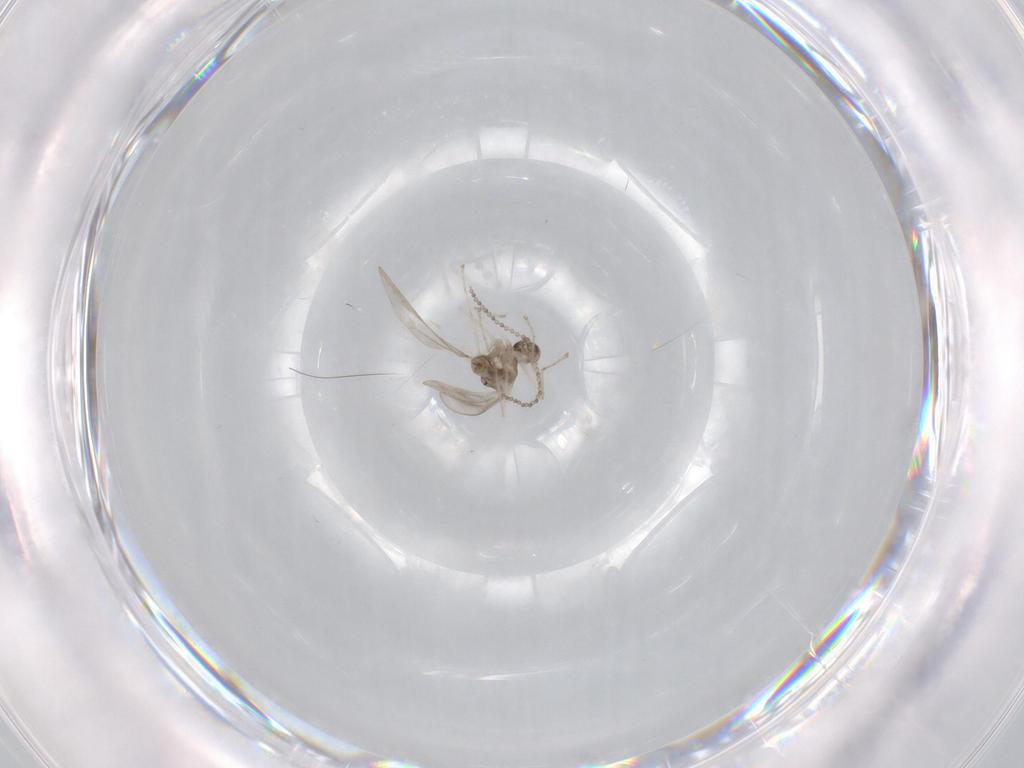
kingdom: Animalia
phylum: Arthropoda
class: Insecta
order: Diptera
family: Cecidomyiidae
